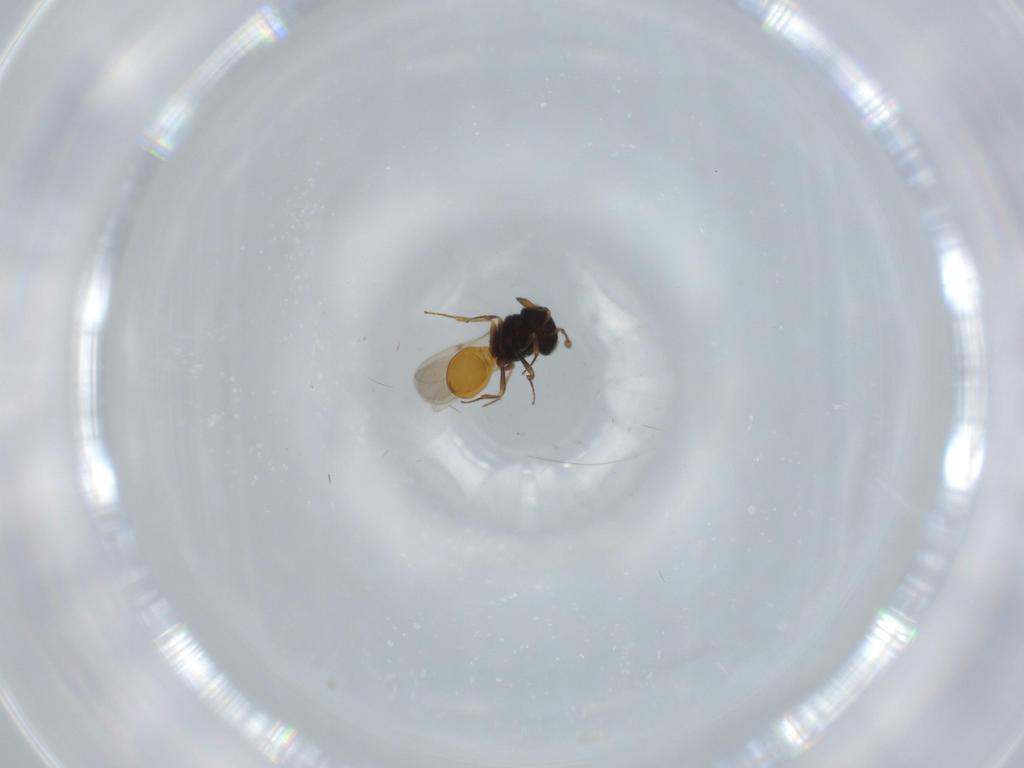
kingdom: Animalia
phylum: Arthropoda
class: Insecta
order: Hymenoptera
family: Scelionidae
